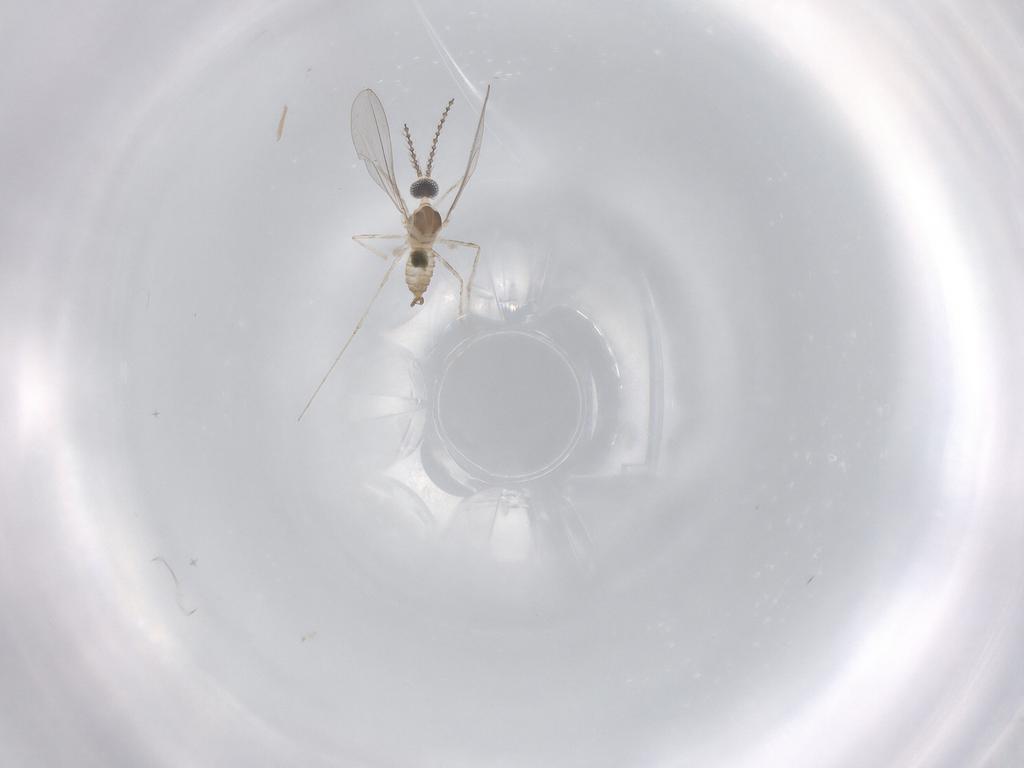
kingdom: Animalia
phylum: Arthropoda
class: Insecta
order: Diptera
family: Cecidomyiidae
